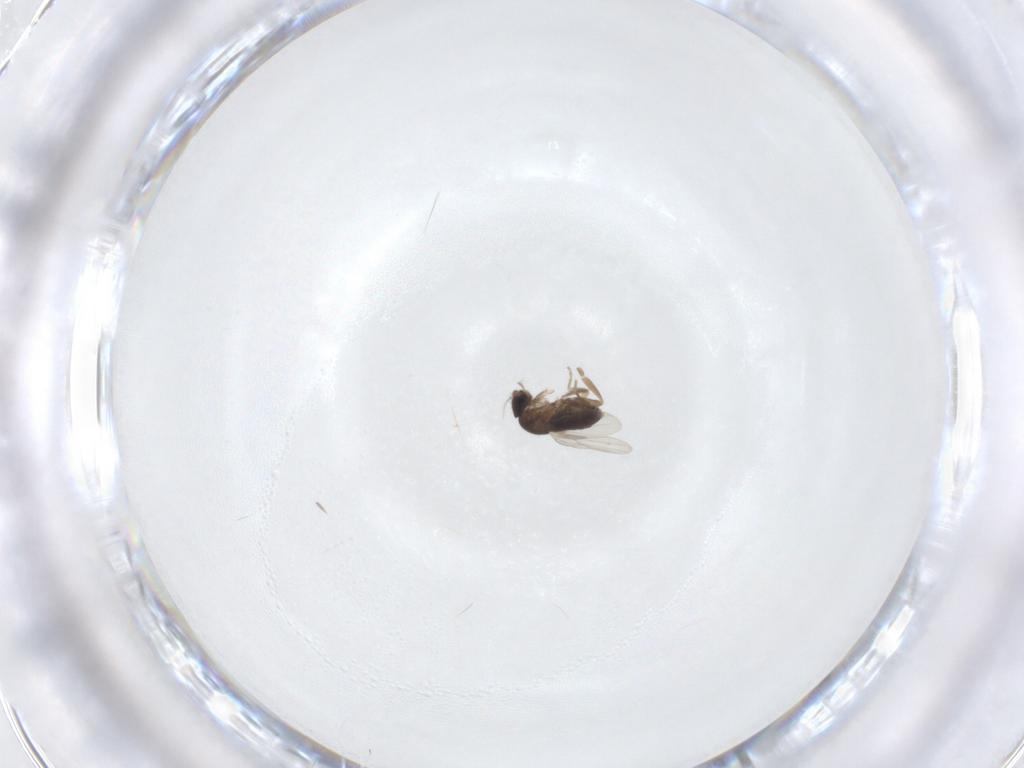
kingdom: Animalia
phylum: Arthropoda
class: Insecta
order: Diptera
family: Phoridae
